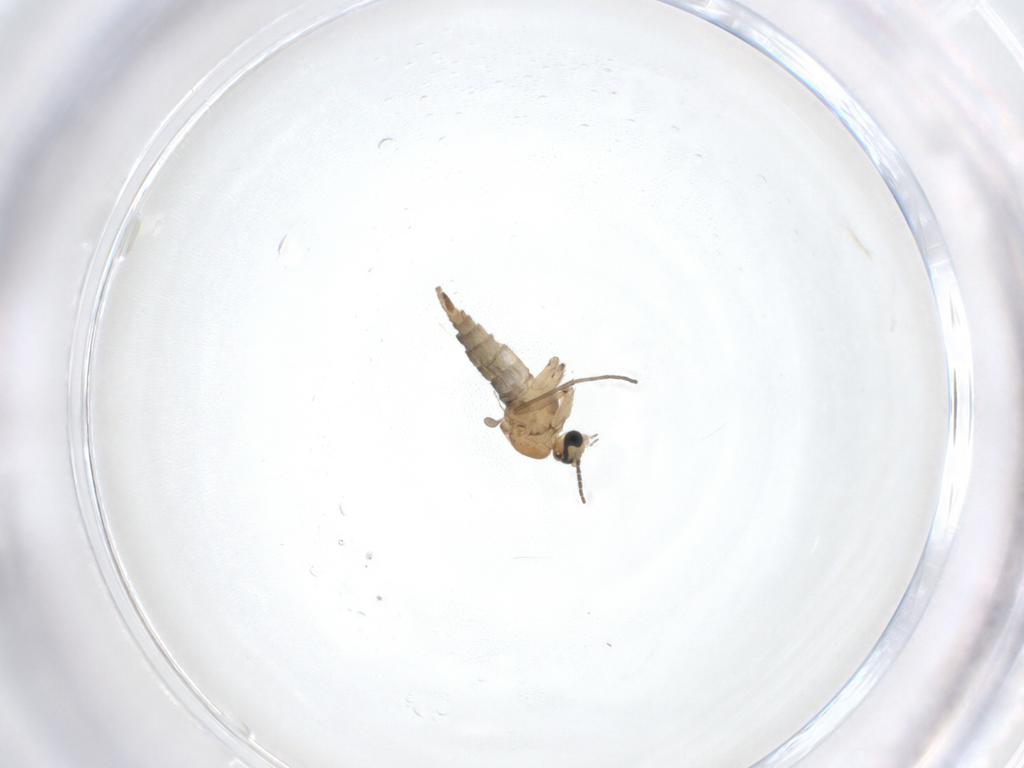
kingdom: Animalia
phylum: Arthropoda
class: Insecta
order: Diptera
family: Sciaridae
